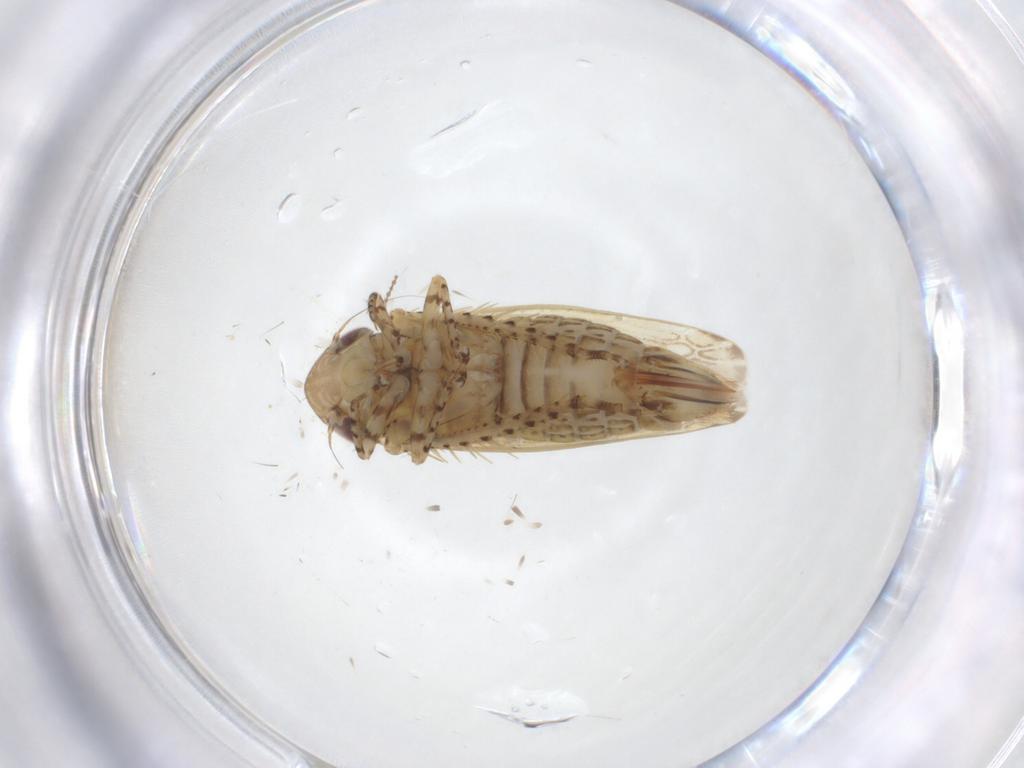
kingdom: Animalia
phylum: Arthropoda
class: Insecta
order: Hemiptera
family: Cicadellidae
